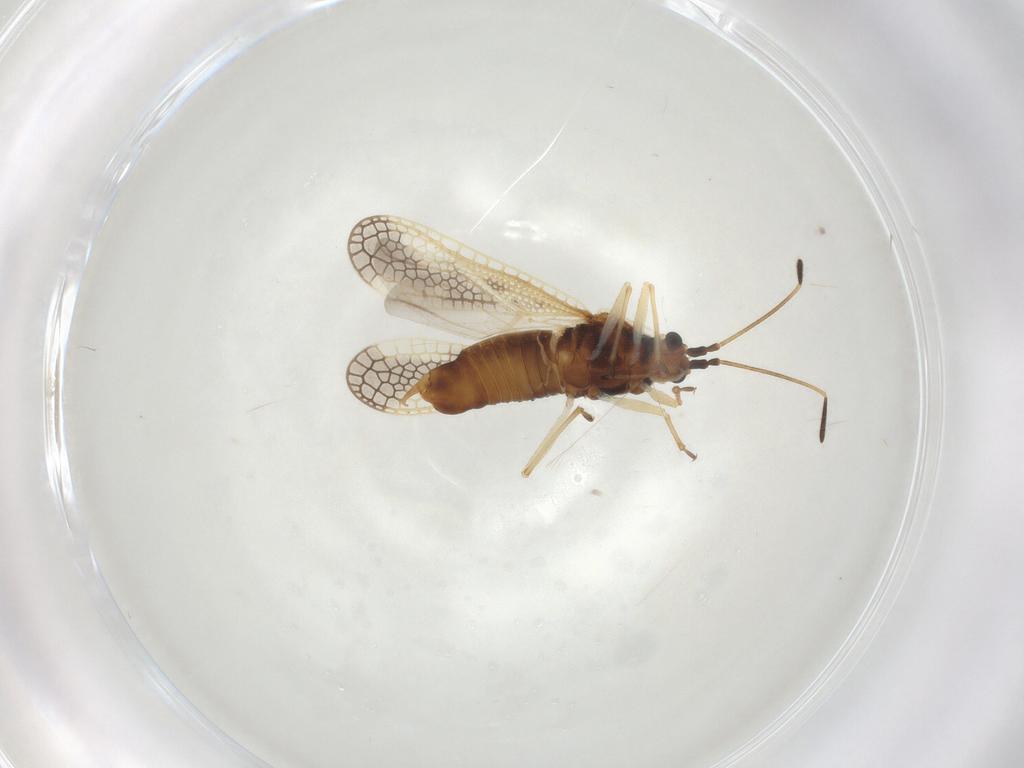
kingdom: Animalia
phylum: Arthropoda
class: Insecta
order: Hemiptera
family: Tingidae
